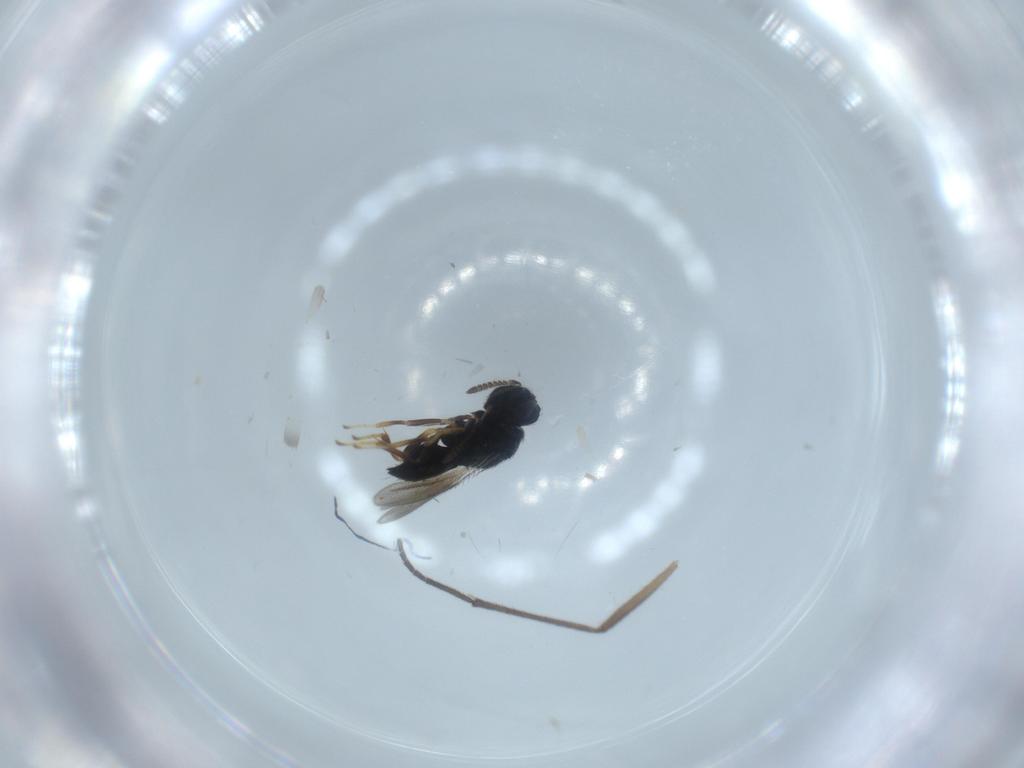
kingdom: Animalia
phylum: Arthropoda
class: Insecta
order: Hymenoptera
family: Pteromalidae
